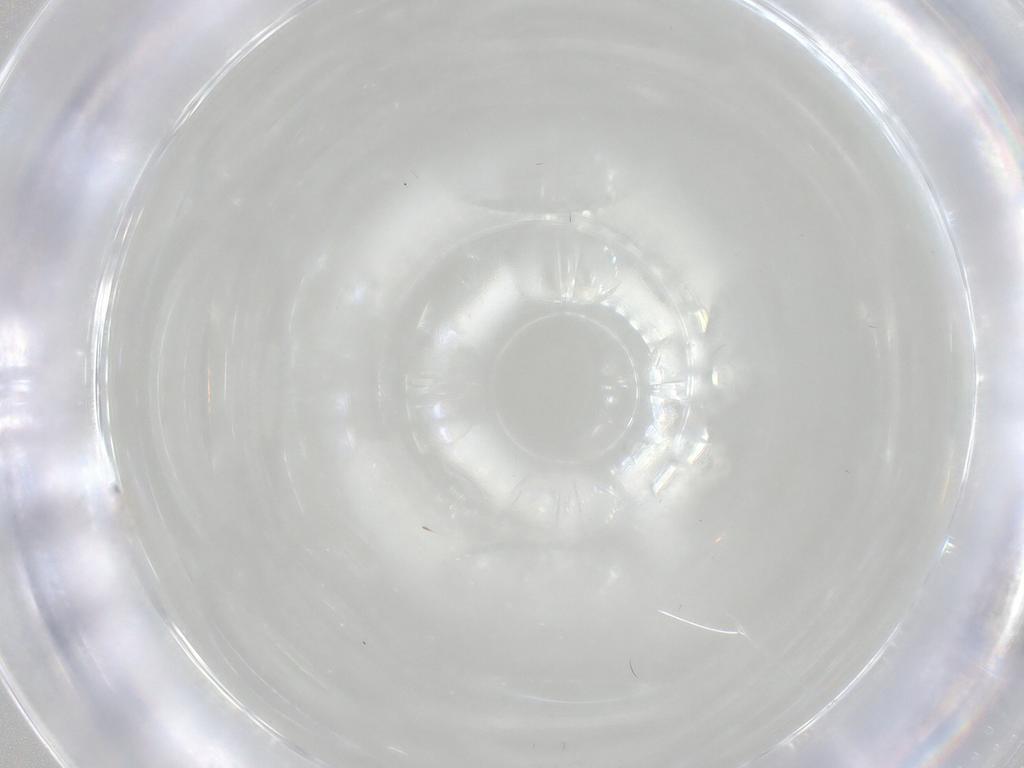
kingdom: Animalia
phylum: Arthropoda
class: Insecta
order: Hymenoptera
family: Mymaridae
